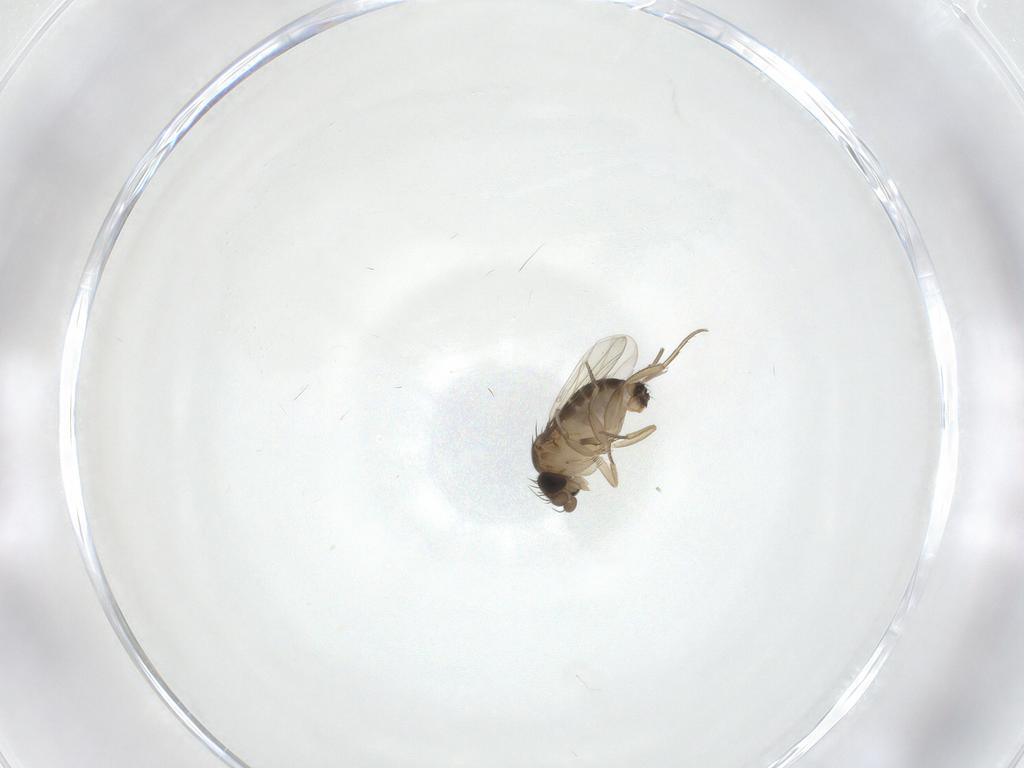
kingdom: Animalia
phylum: Arthropoda
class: Insecta
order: Diptera
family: Phoridae
